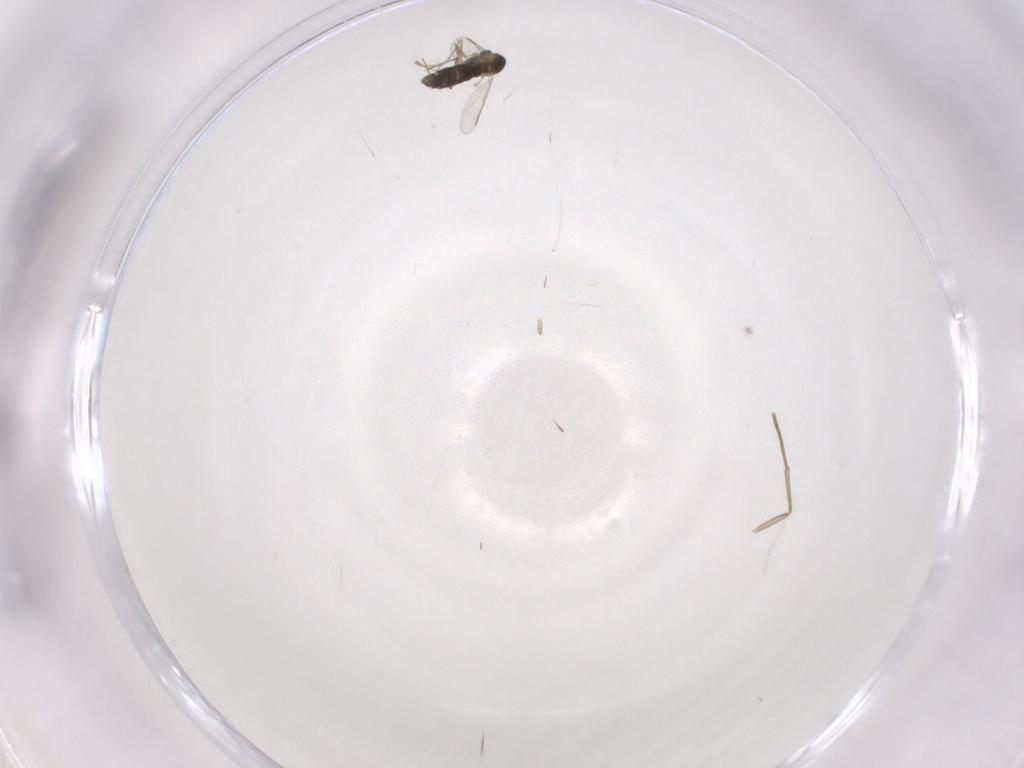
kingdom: Animalia
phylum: Arthropoda
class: Insecta
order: Diptera
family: Chironomidae
